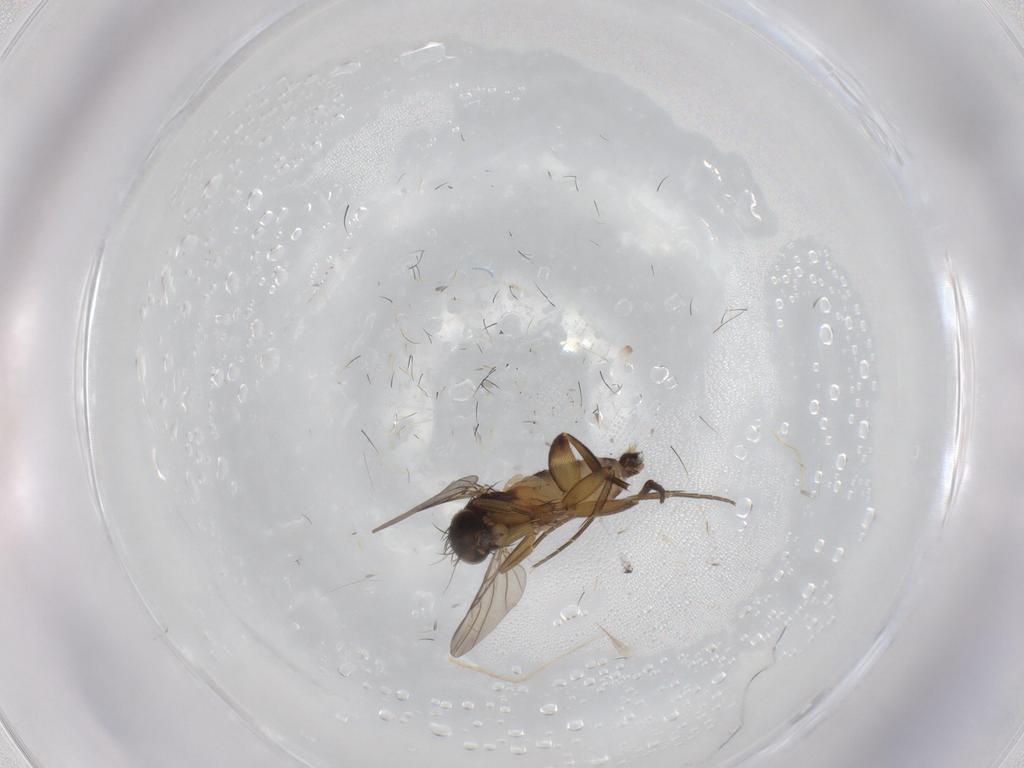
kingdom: Animalia
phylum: Arthropoda
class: Insecta
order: Diptera
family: Phoridae
